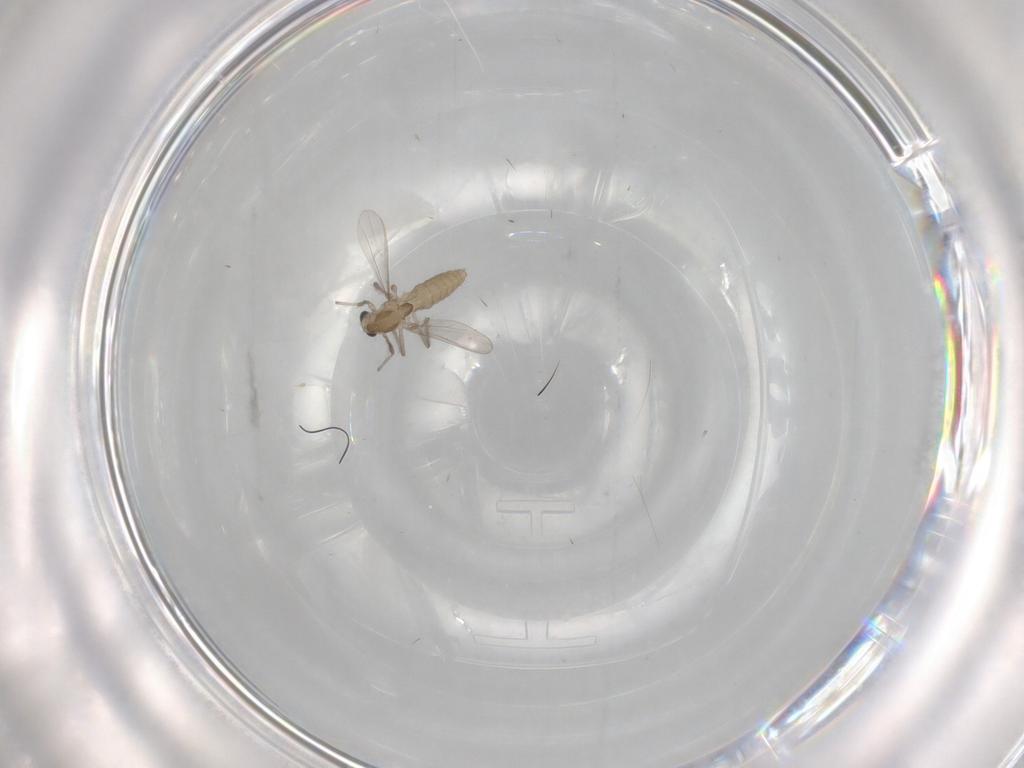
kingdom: Animalia
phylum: Arthropoda
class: Insecta
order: Diptera
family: Chironomidae
